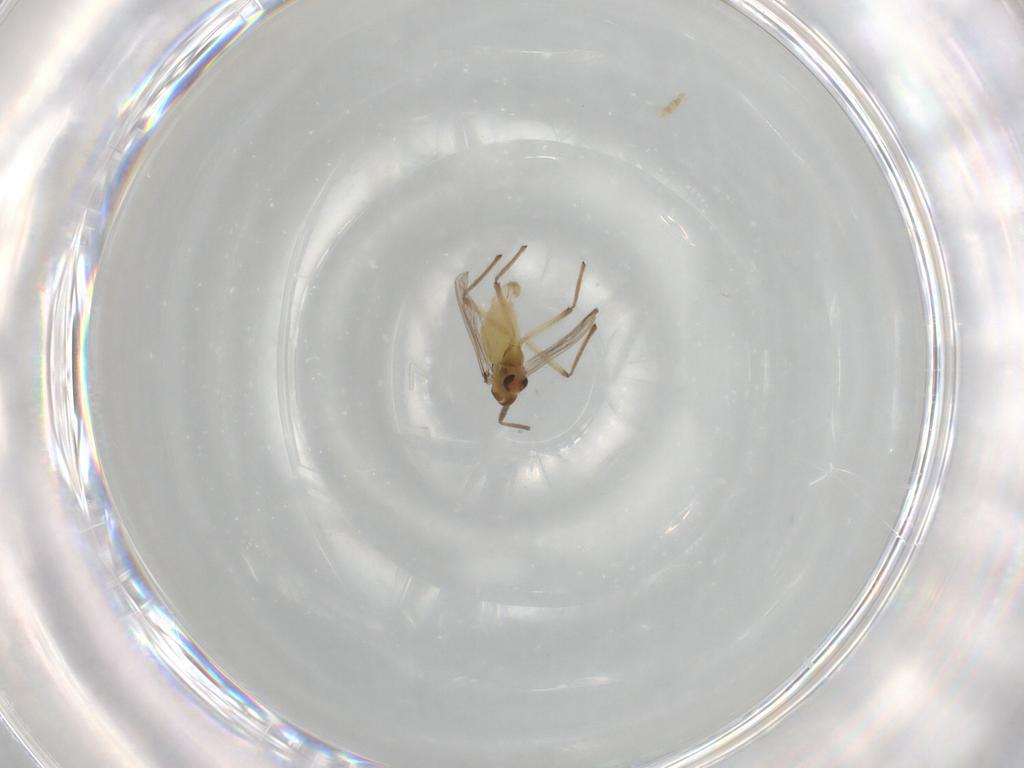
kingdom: Animalia
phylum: Arthropoda
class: Insecta
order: Diptera
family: Chironomidae
